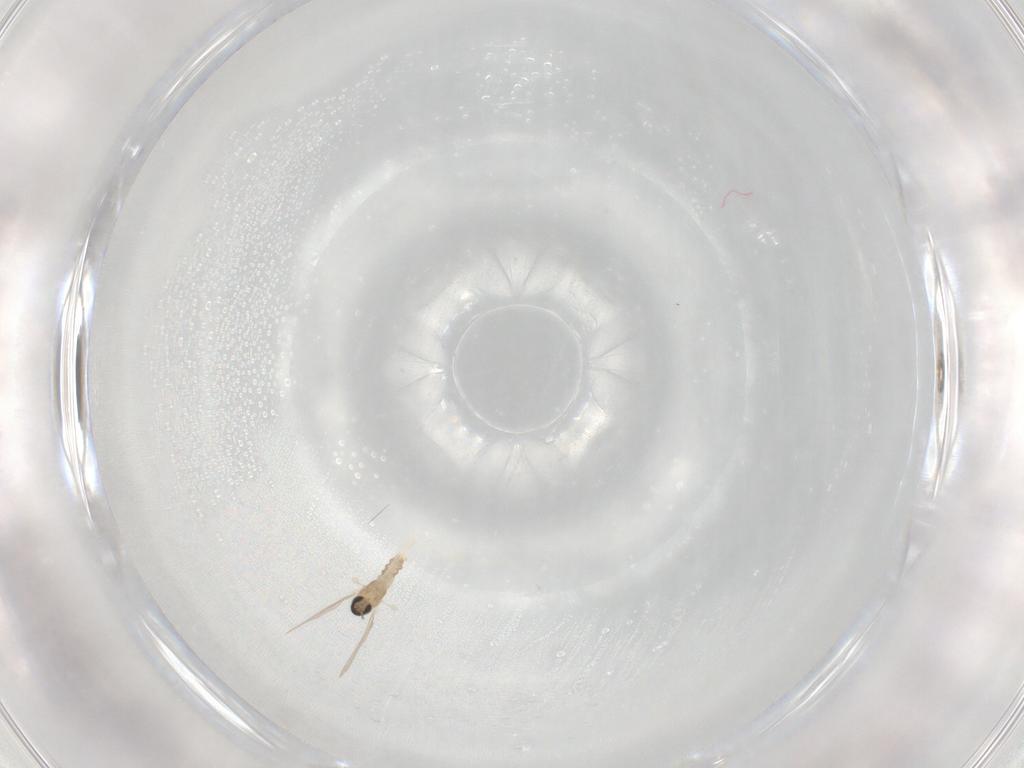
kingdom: Animalia
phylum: Arthropoda
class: Insecta
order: Diptera
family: Cecidomyiidae
